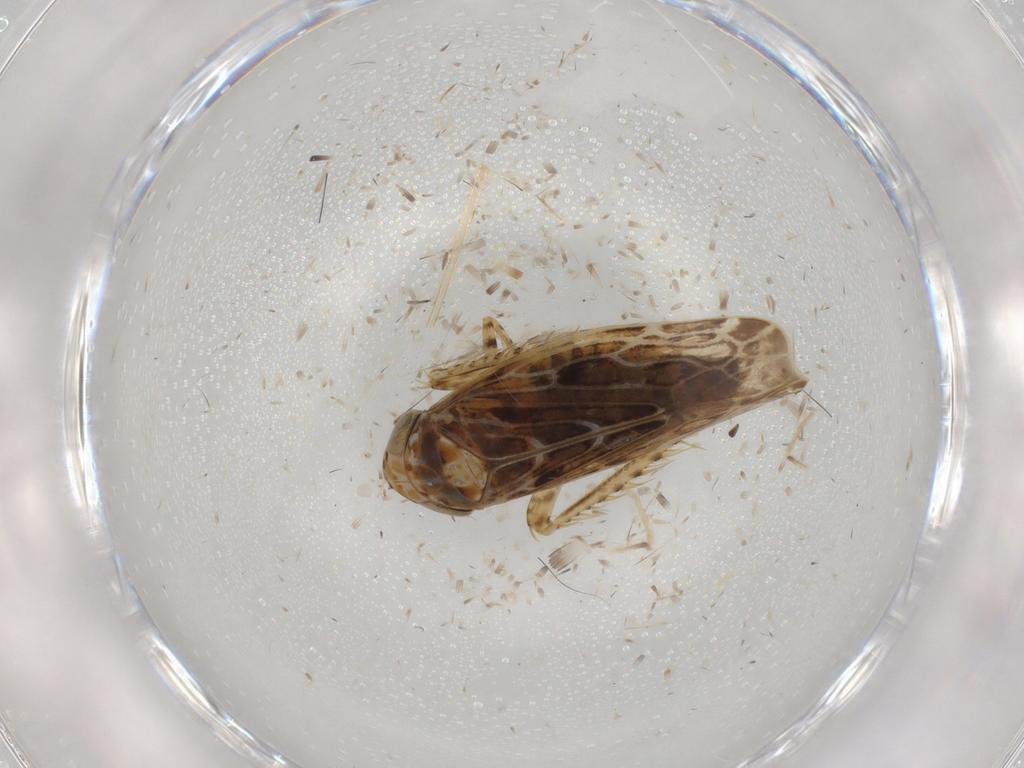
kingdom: Animalia
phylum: Arthropoda
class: Insecta
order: Hemiptera
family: Cicadellidae
